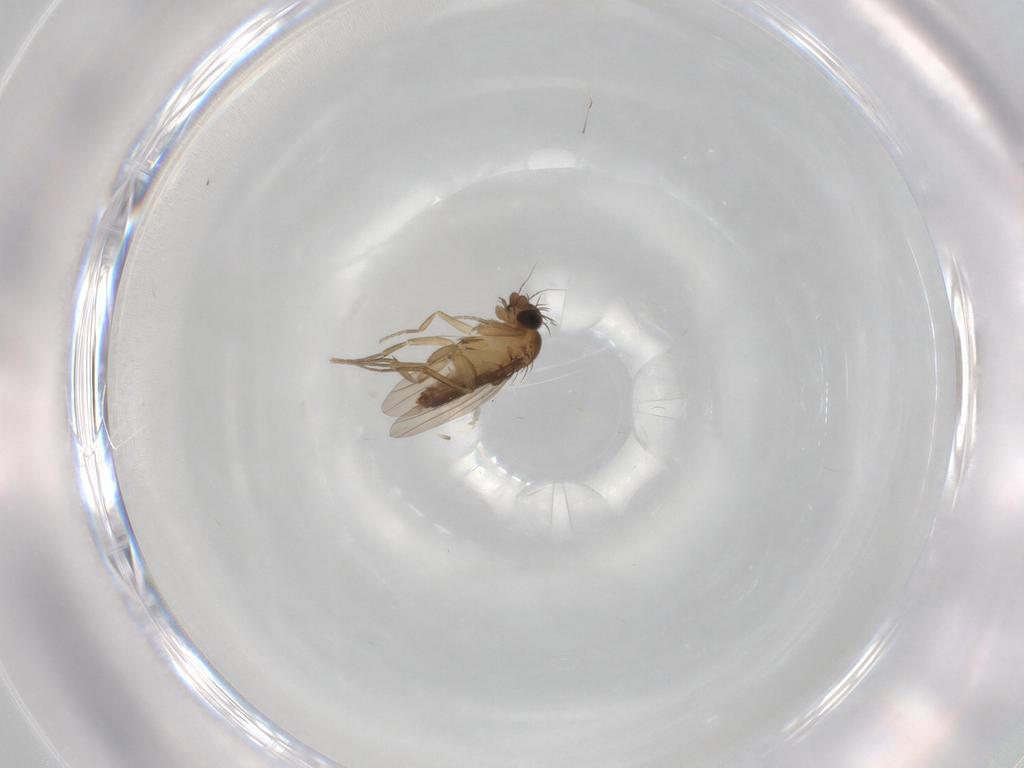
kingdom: Animalia
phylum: Arthropoda
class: Insecta
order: Diptera
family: Phoridae
